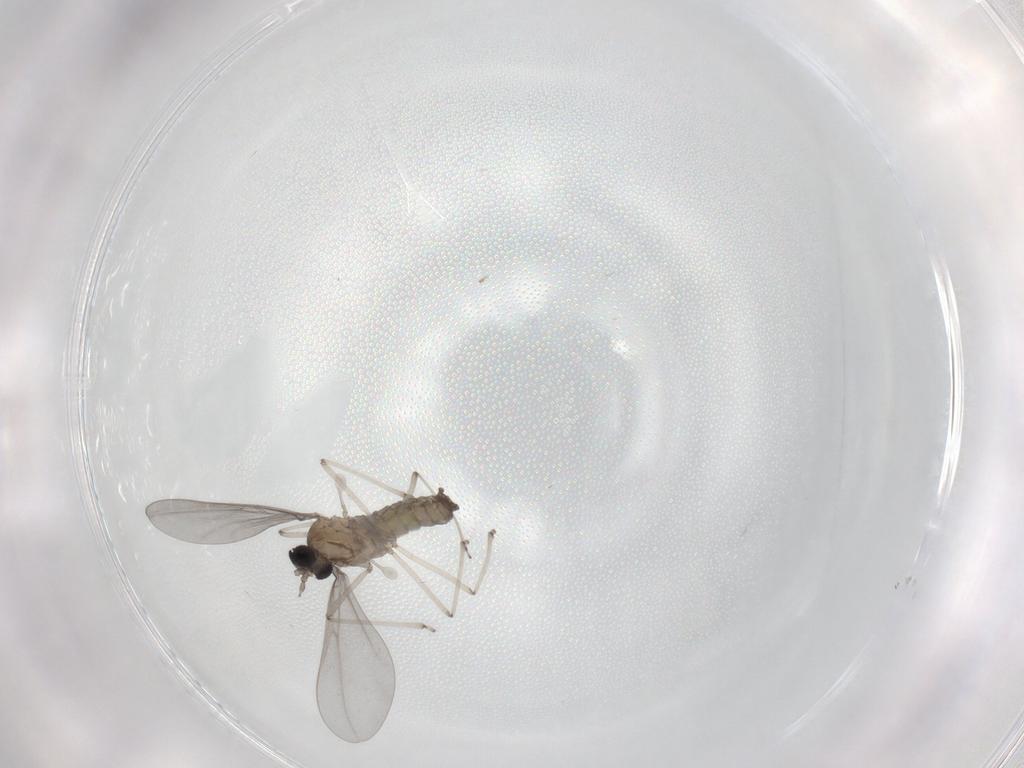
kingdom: Animalia
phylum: Arthropoda
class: Insecta
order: Diptera
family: Cecidomyiidae
